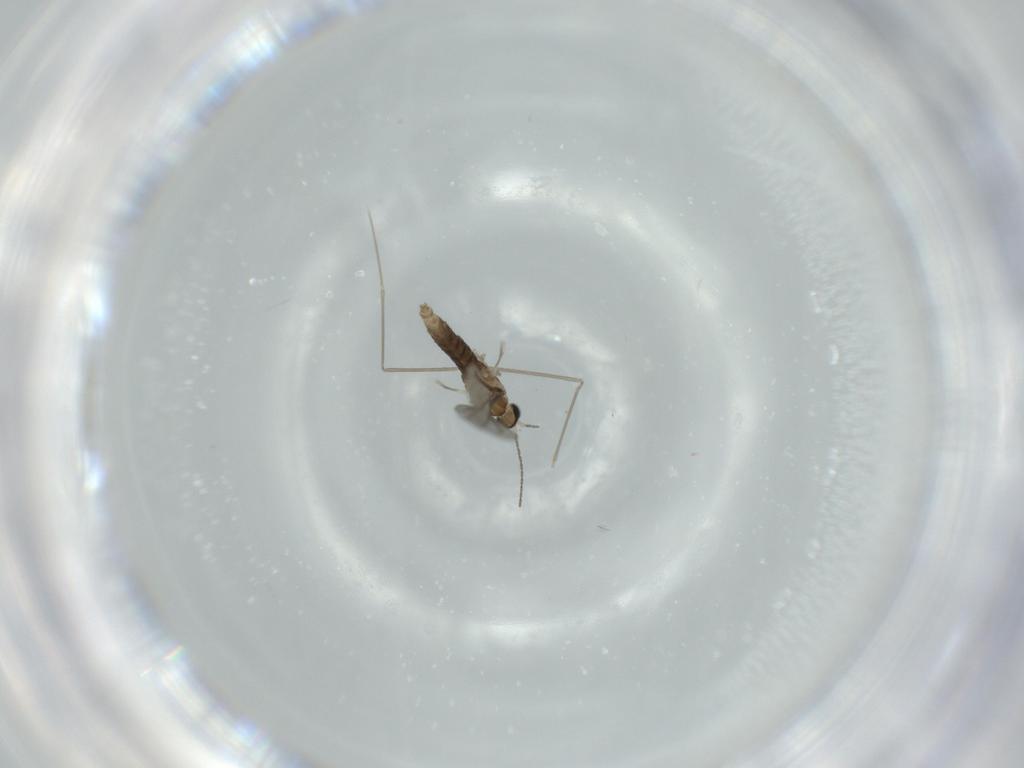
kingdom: Animalia
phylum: Arthropoda
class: Insecta
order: Diptera
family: Cecidomyiidae
